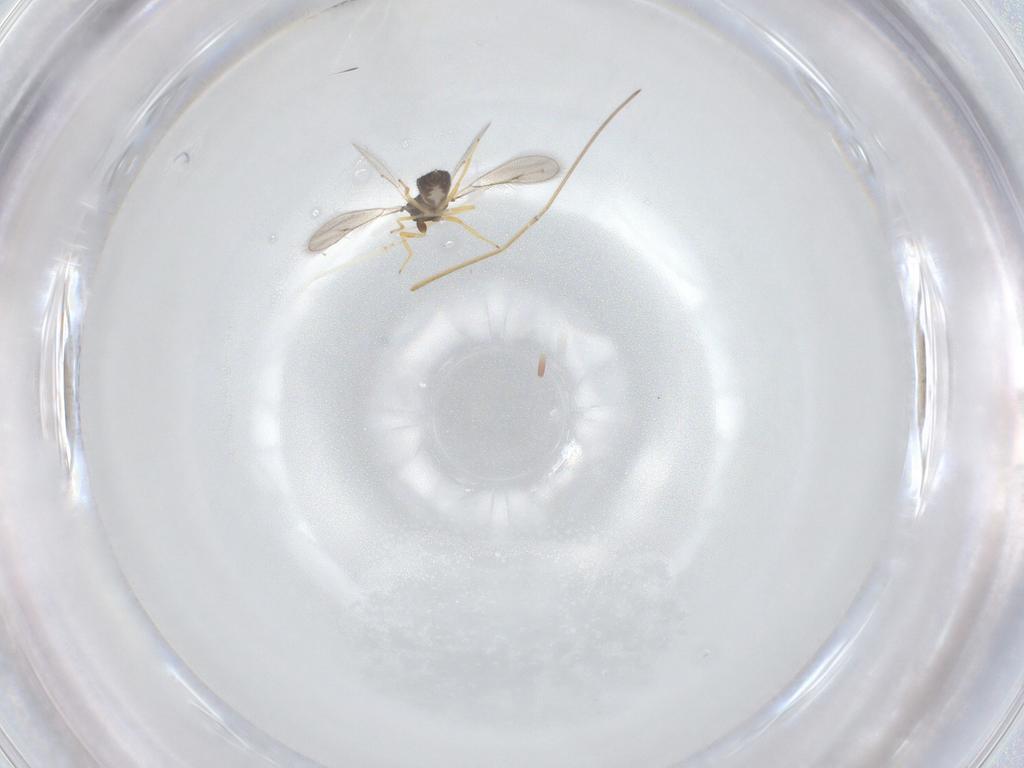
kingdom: Animalia
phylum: Arthropoda
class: Insecta
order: Hymenoptera
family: Eulophidae
